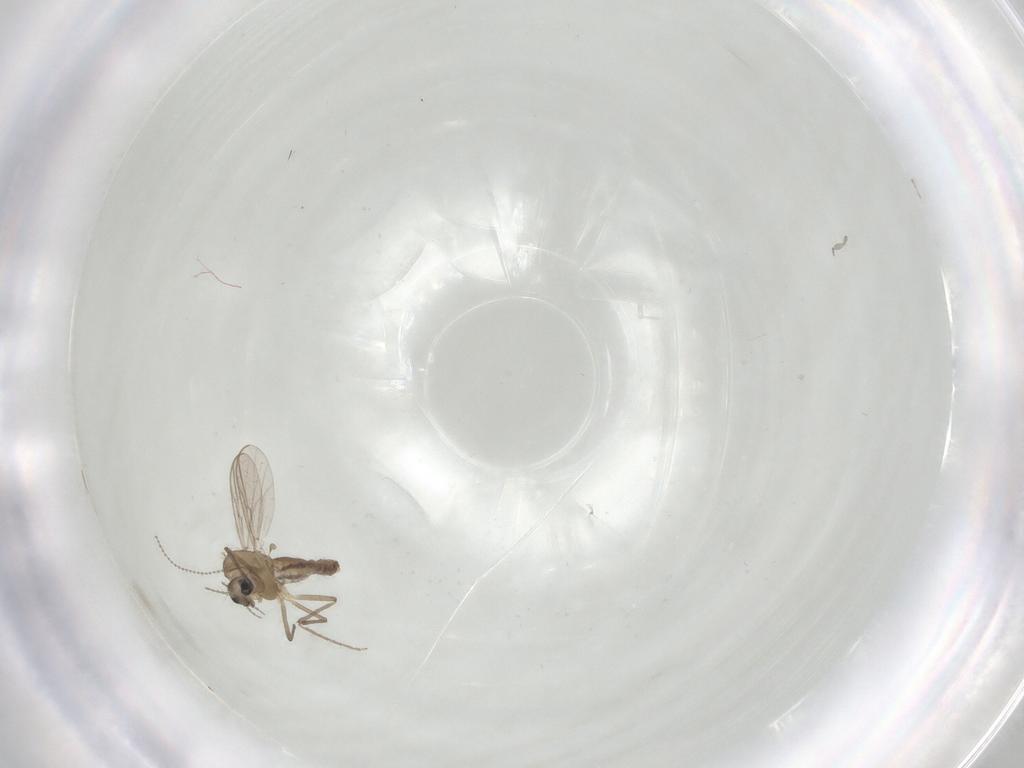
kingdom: Animalia
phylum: Arthropoda
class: Insecta
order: Diptera
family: Chironomidae
